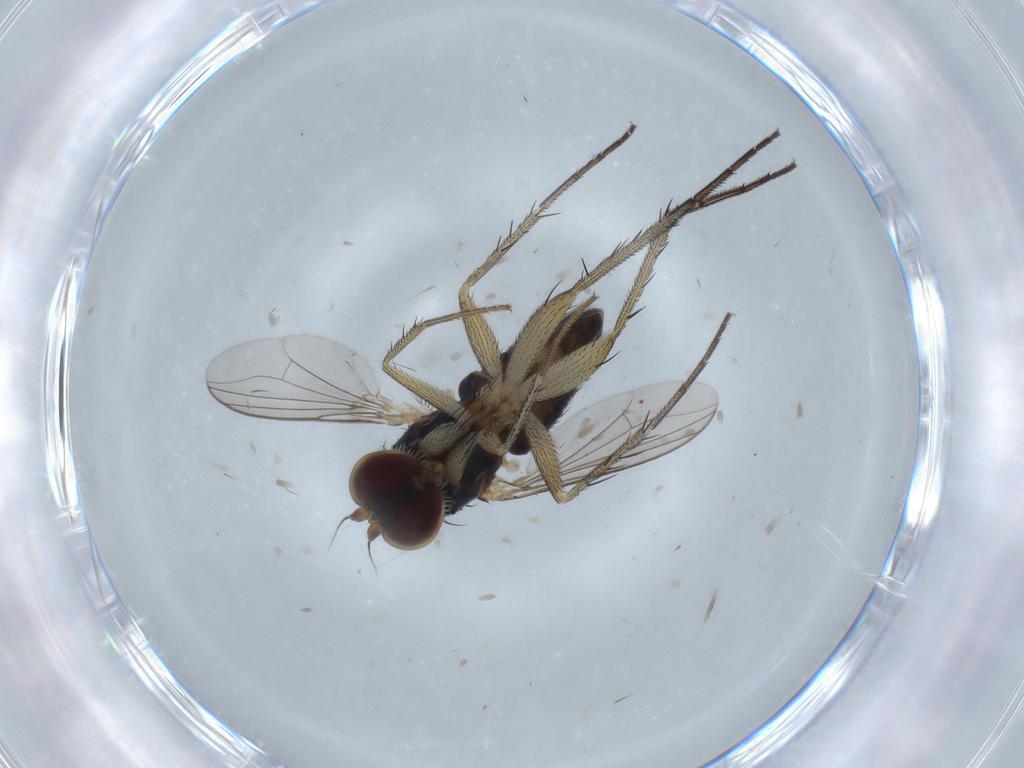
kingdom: Animalia
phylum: Arthropoda
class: Insecta
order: Diptera
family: Dolichopodidae
